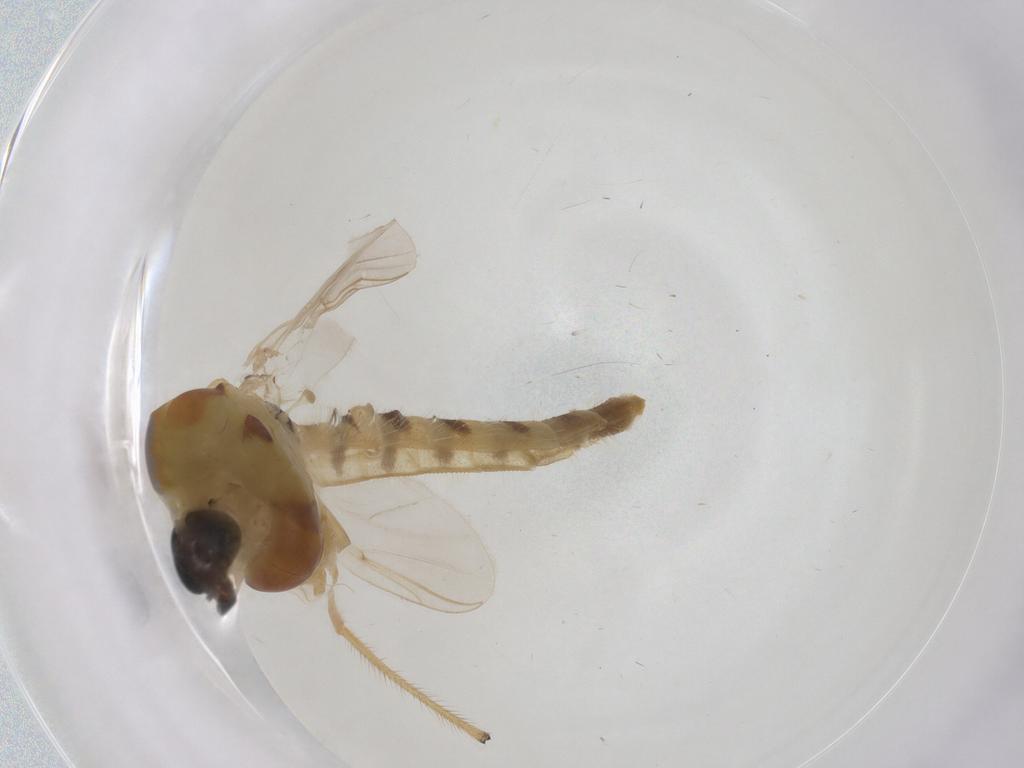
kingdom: Animalia
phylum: Arthropoda
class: Insecta
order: Diptera
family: Chironomidae
